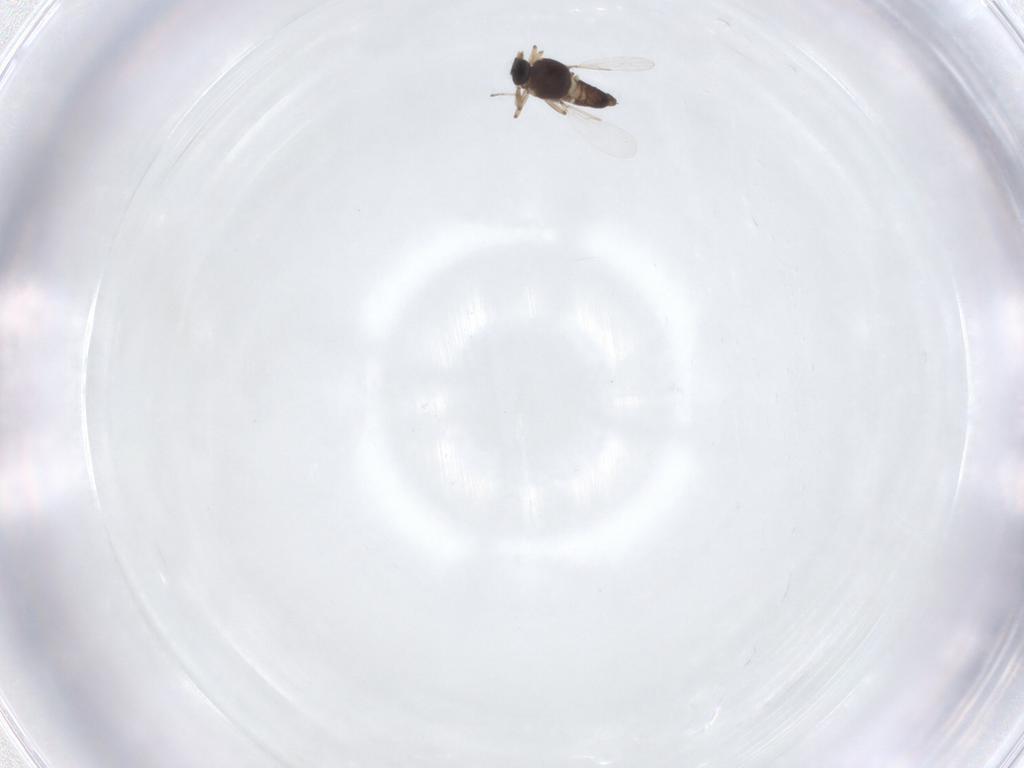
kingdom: Animalia
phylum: Arthropoda
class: Insecta
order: Diptera
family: Ceratopogonidae
